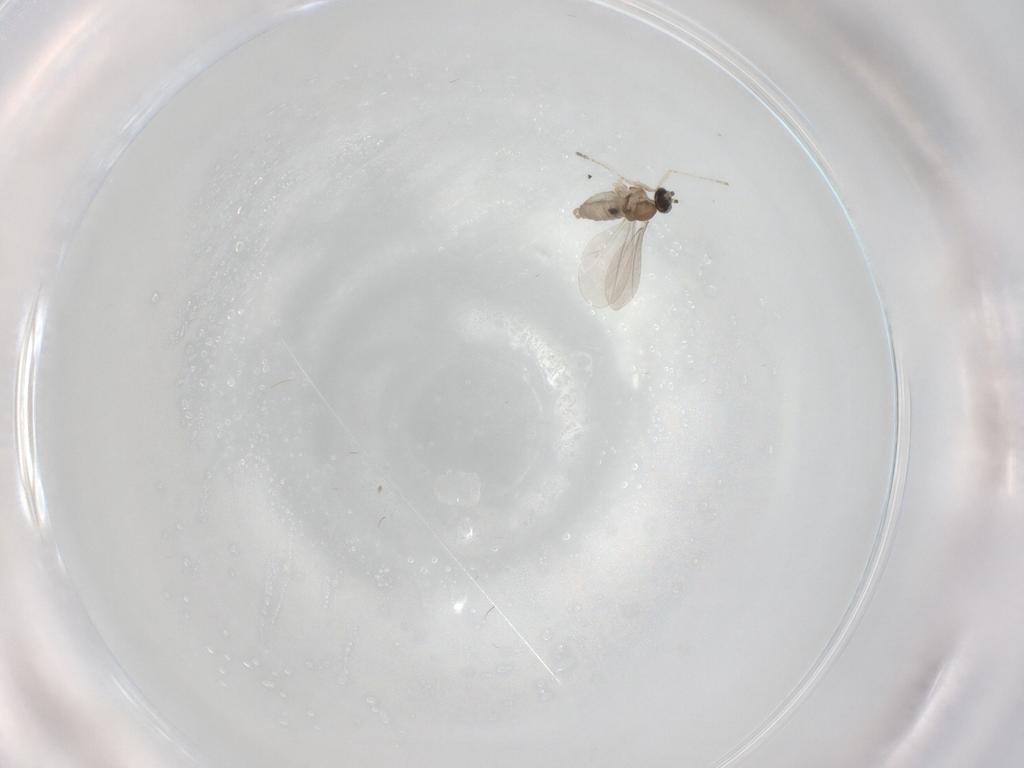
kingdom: Animalia
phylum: Arthropoda
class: Insecta
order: Diptera
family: Cecidomyiidae
